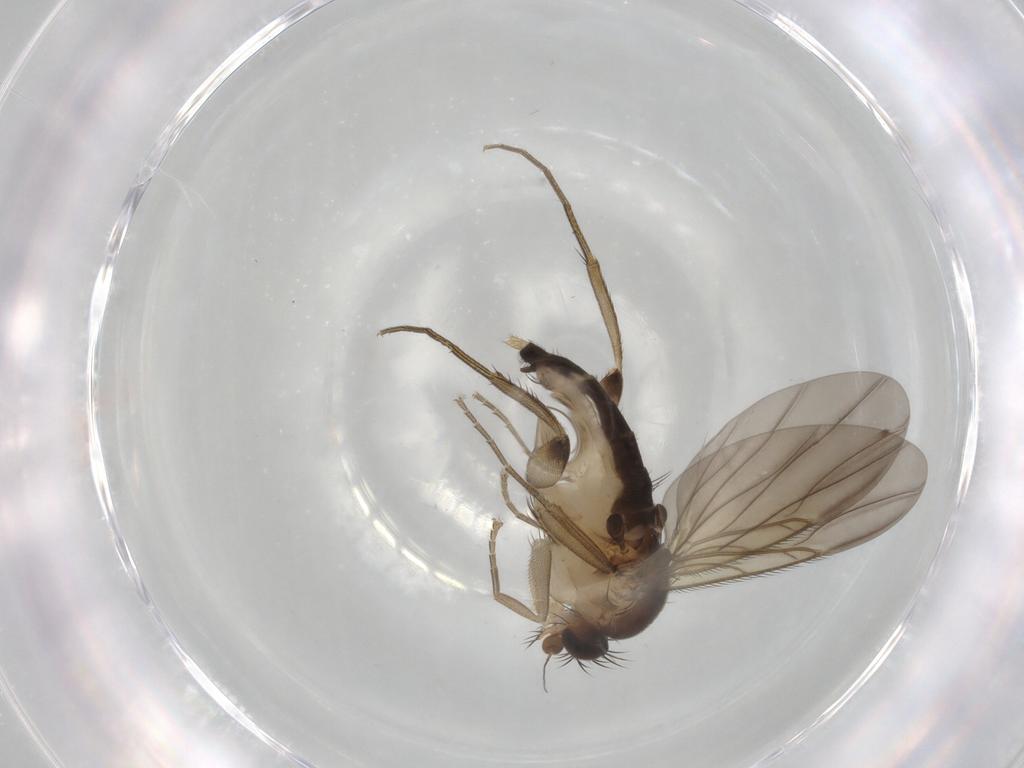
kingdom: Animalia
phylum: Arthropoda
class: Insecta
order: Diptera
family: Phoridae
